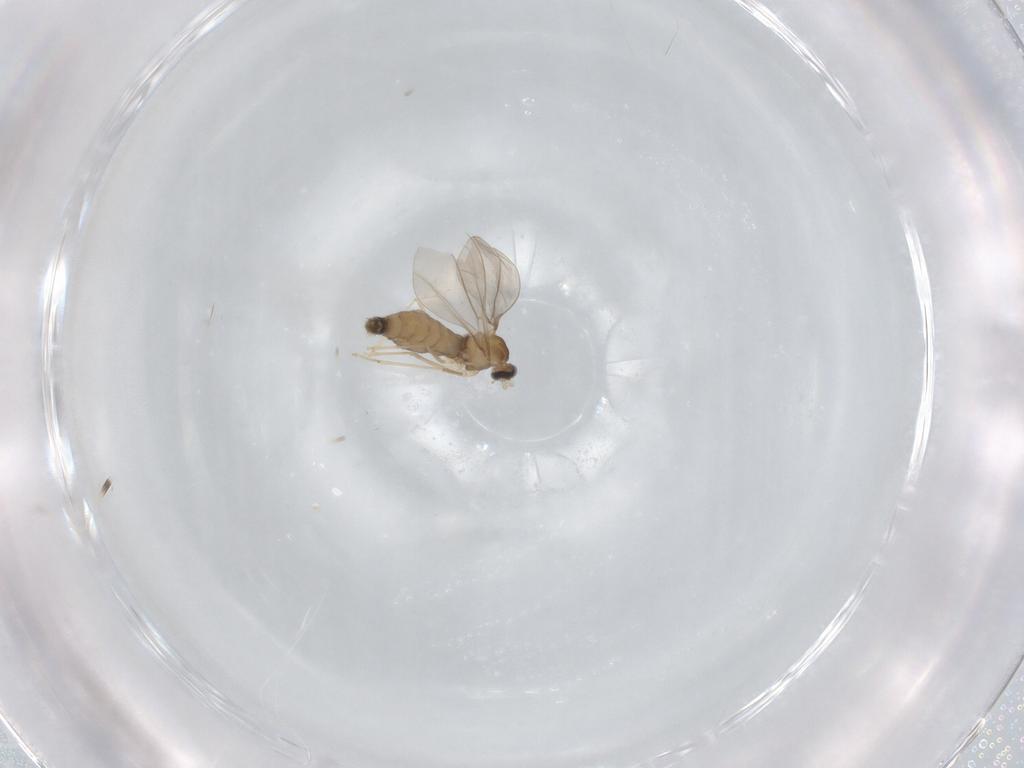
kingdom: Animalia
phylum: Arthropoda
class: Insecta
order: Diptera
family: Cecidomyiidae
